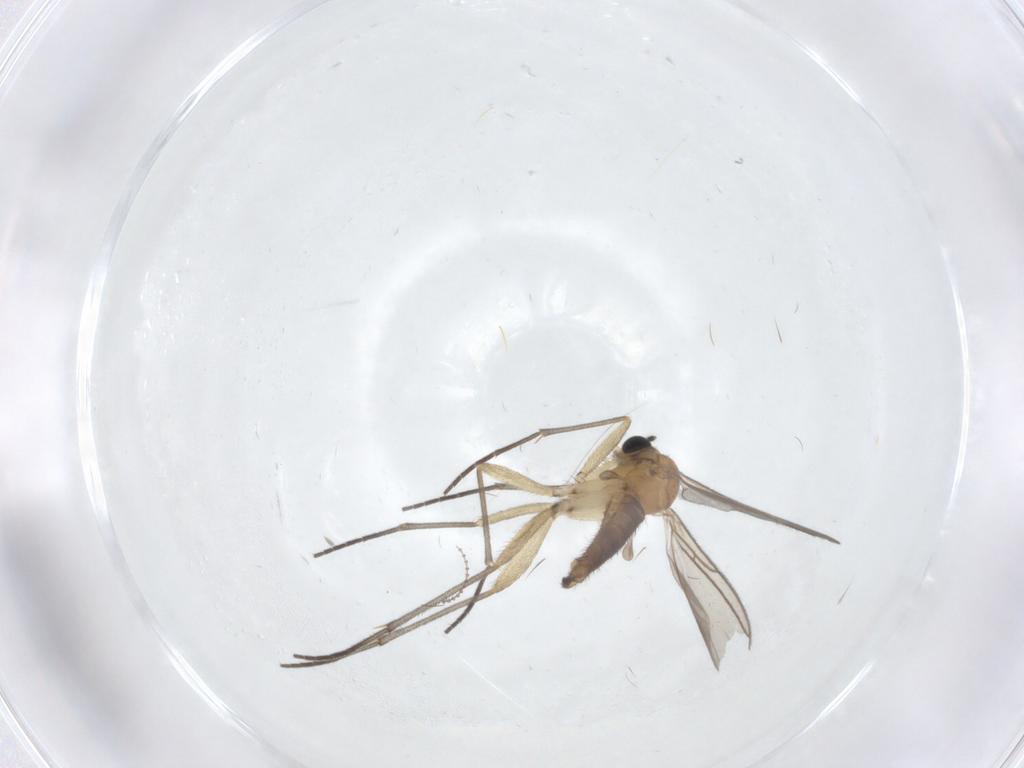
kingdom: Animalia
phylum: Arthropoda
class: Insecta
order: Diptera
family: Sciaridae
